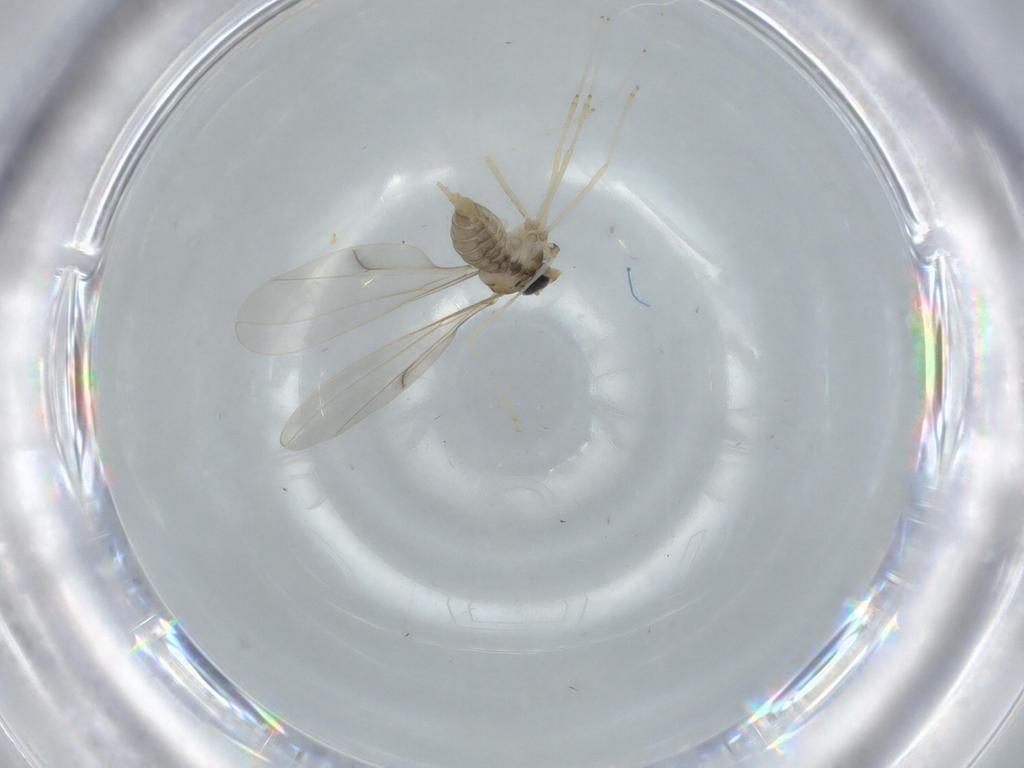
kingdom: Animalia
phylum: Arthropoda
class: Insecta
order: Diptera
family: Cecidomyiidae
